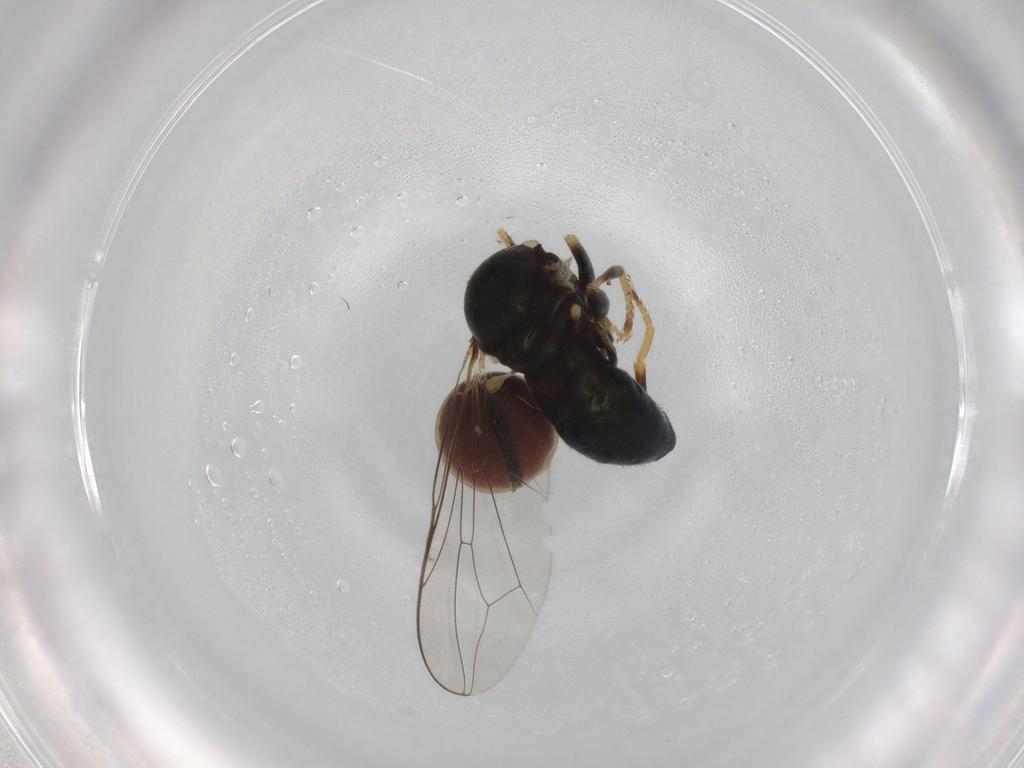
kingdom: Animalia
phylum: Arthropoda
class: Insecta
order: Diptera
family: Pipunculidae
